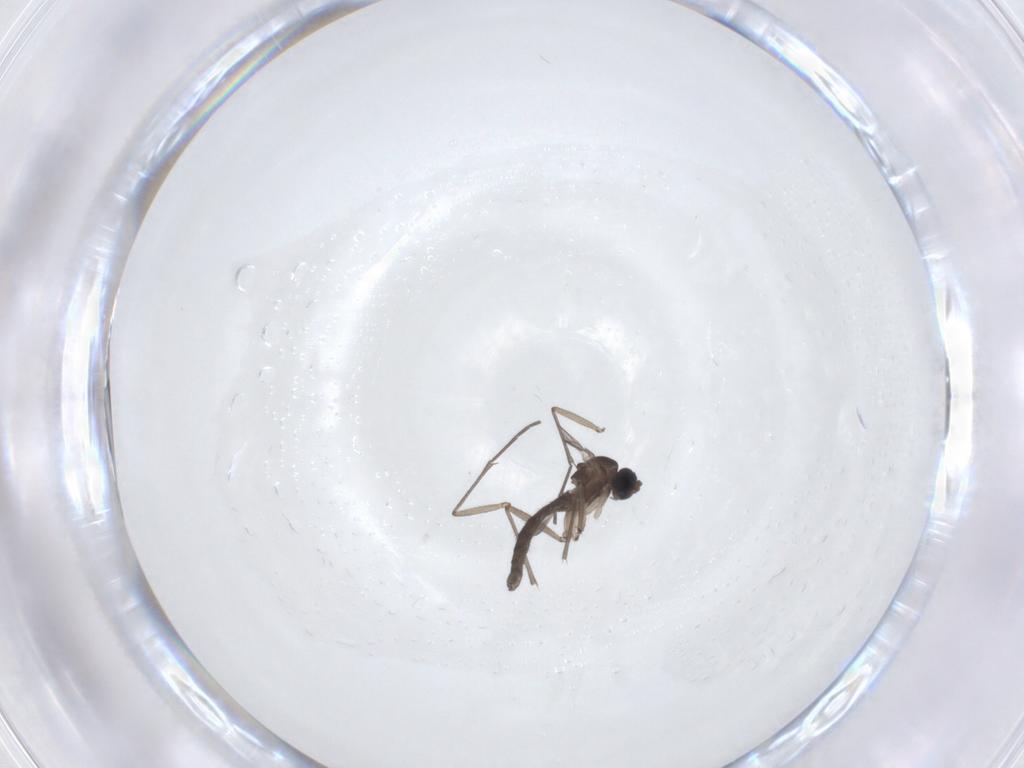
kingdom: Animalia
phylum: Arthropoda
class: Insecta
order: Diptera
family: Sciaridae
